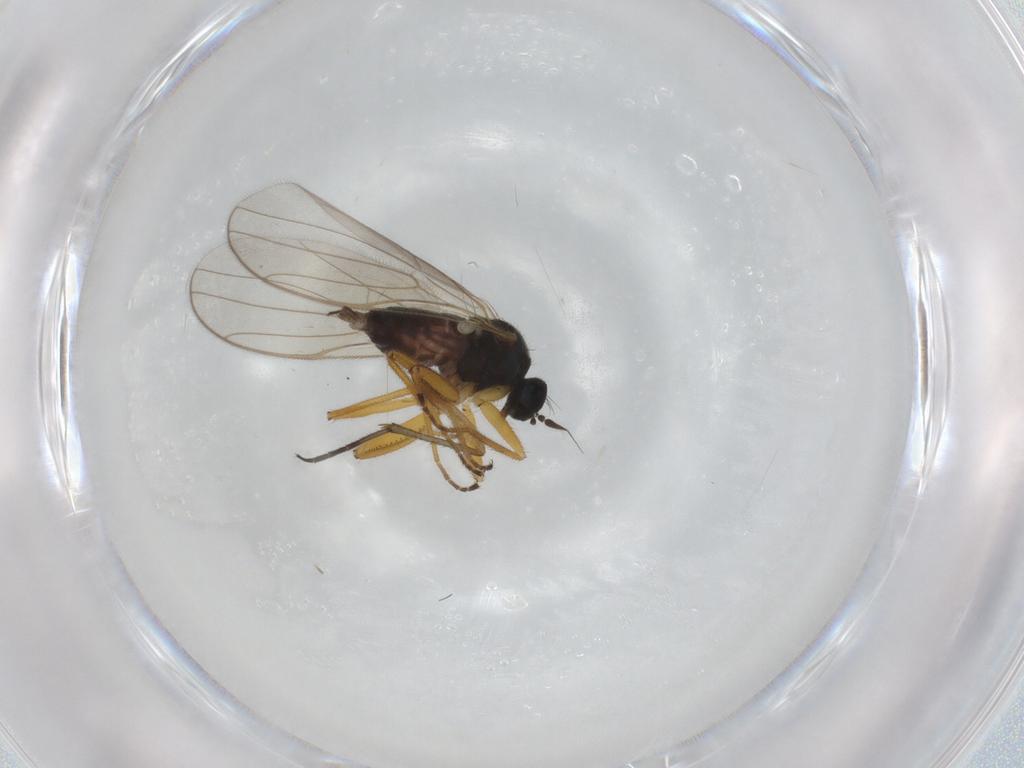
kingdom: Animalia
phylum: Arthropoda
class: Insecta
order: Diptera
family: Hybotidae
